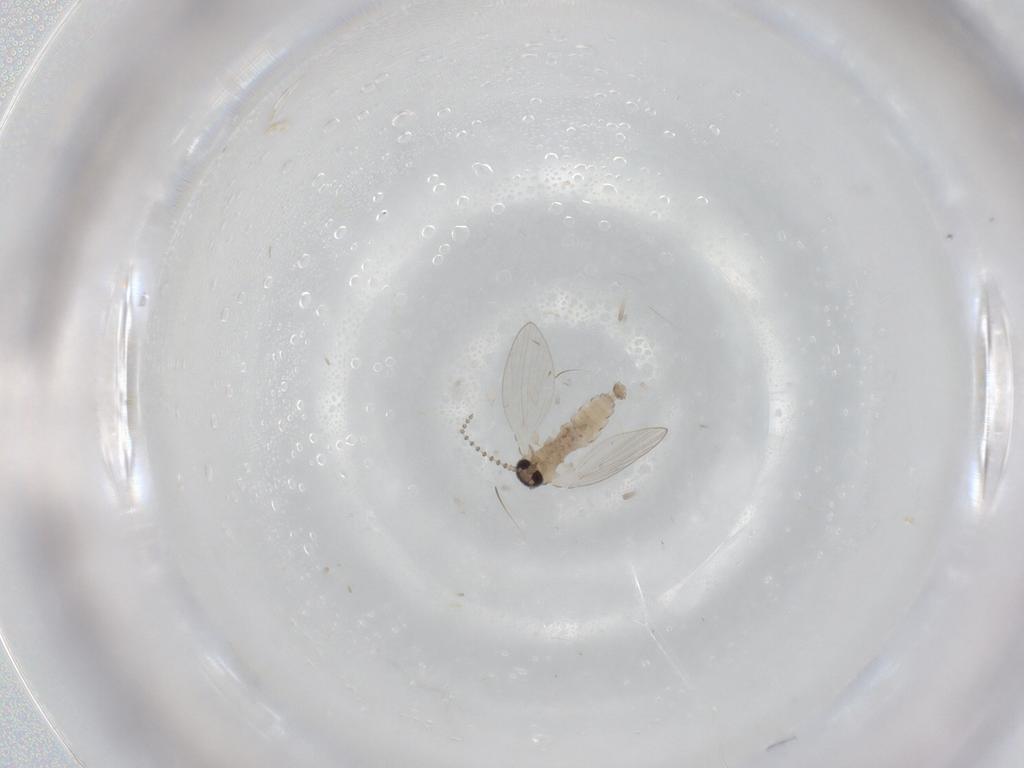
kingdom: Animalia
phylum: Arthropoda
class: Insecta
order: Diptera
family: Psychodidae
